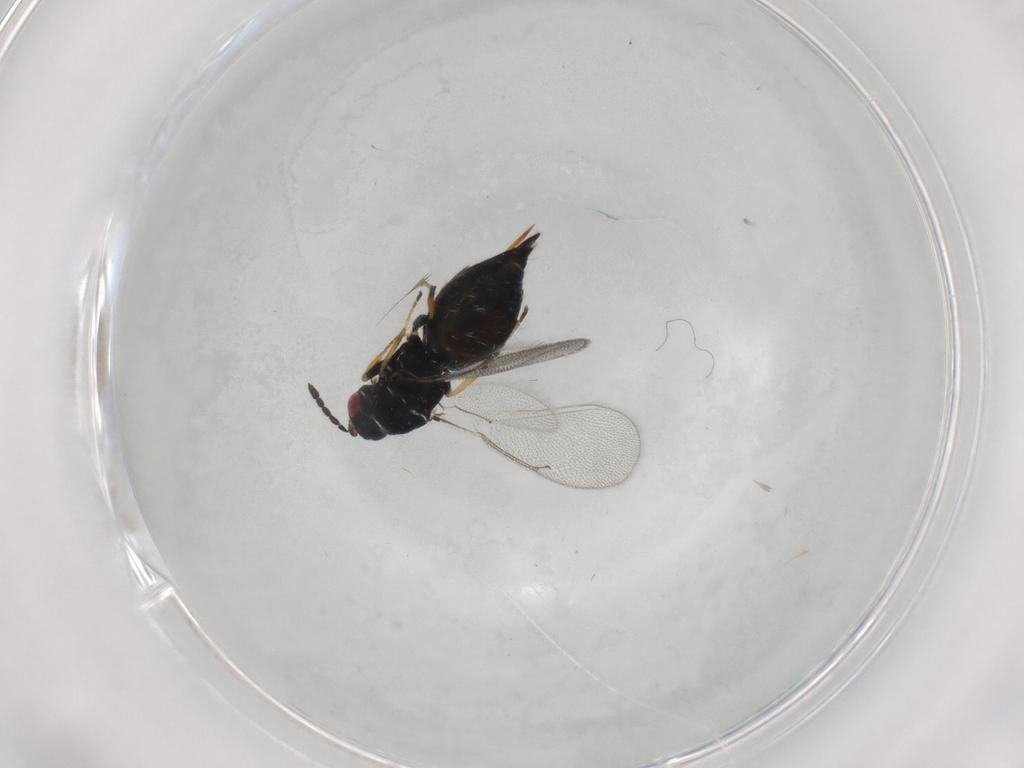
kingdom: Animalia
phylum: Arthropoda
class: Insecta
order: Hymenoptera
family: Eulophidae
